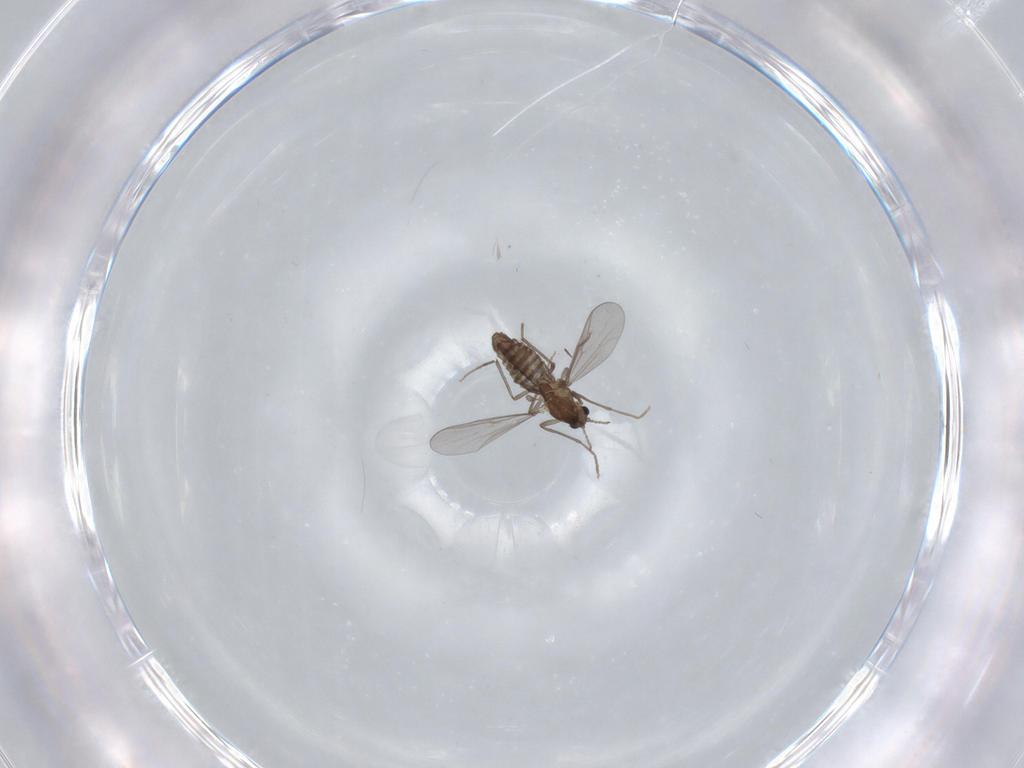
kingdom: Animalia
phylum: Arthropoda
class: Insecta
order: Diptera
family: Chironomidae
